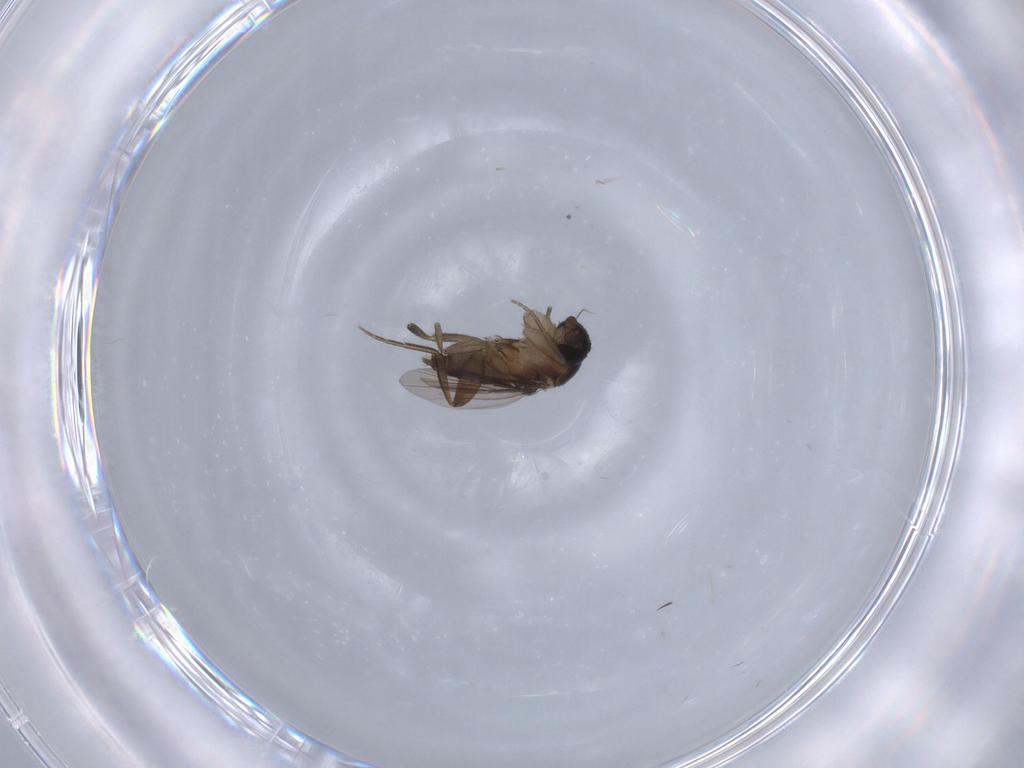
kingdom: Animalia
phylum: Arthropoda
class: Insecta
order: Diptera
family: Phoridae
